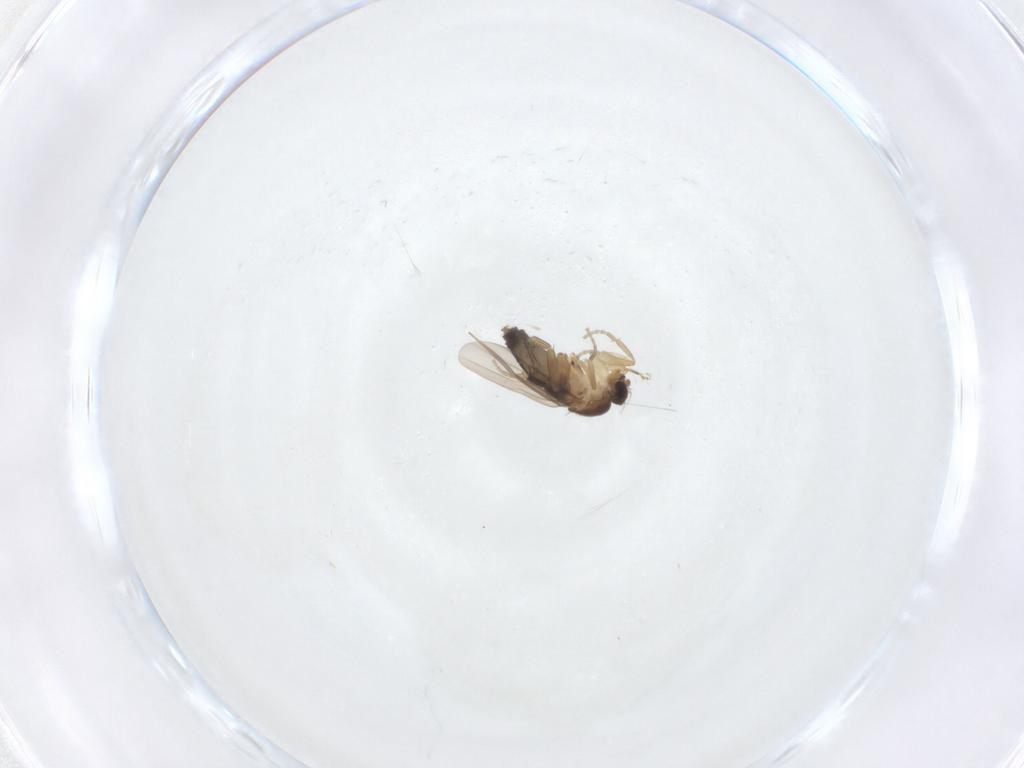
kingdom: Animalia
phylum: Arthropoda
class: Insecta
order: Diptera
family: Phoridae
